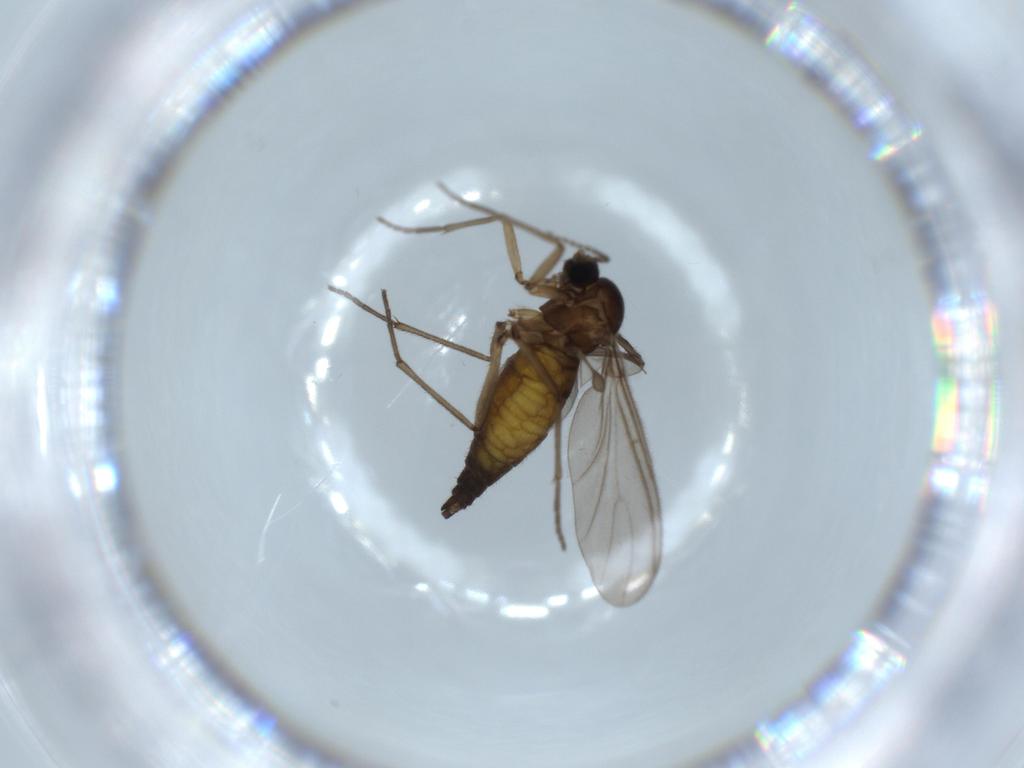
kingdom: Animalia
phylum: Arthropoda
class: Insecta
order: Diptera
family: Sciaridae
